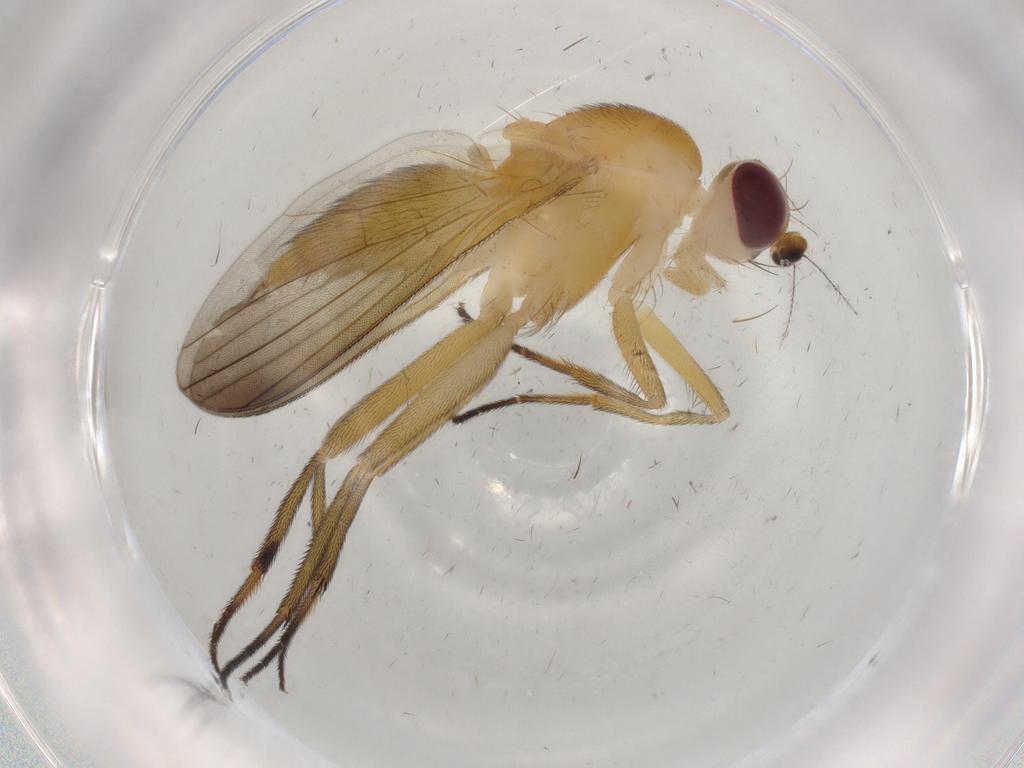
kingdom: Animalia
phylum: Arthropoda
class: Insecta
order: Diptera
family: Clusiidae
